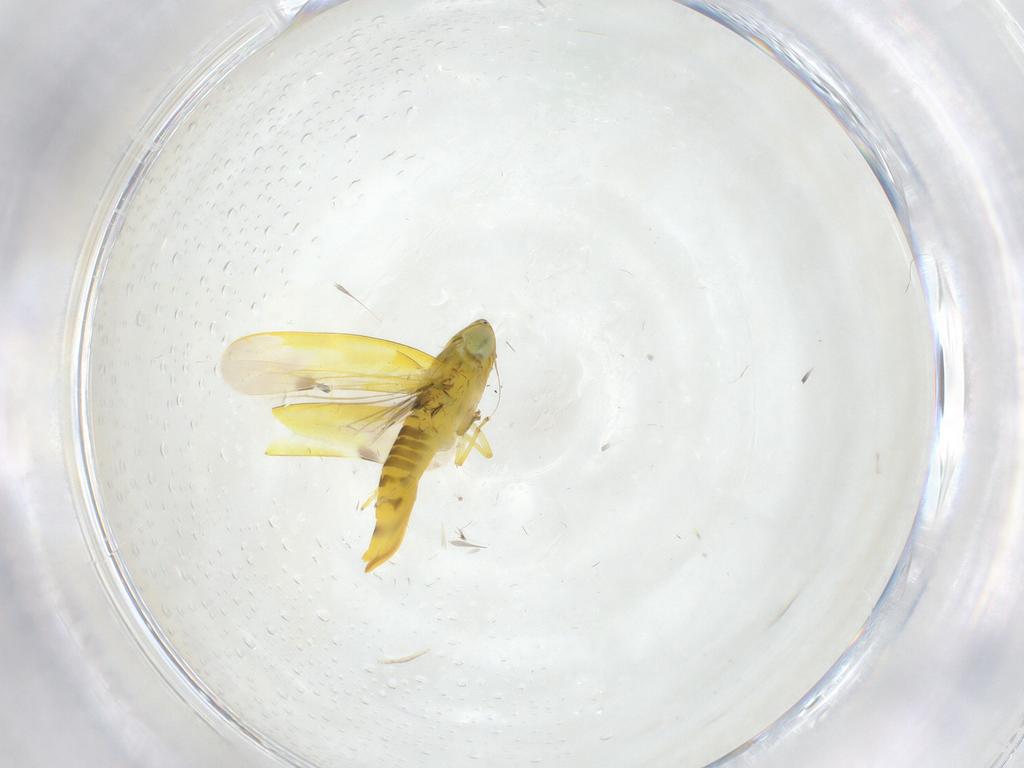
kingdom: Animalia
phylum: Arthropoda
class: Insecta
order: Hemiptera
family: Cicadellidae
